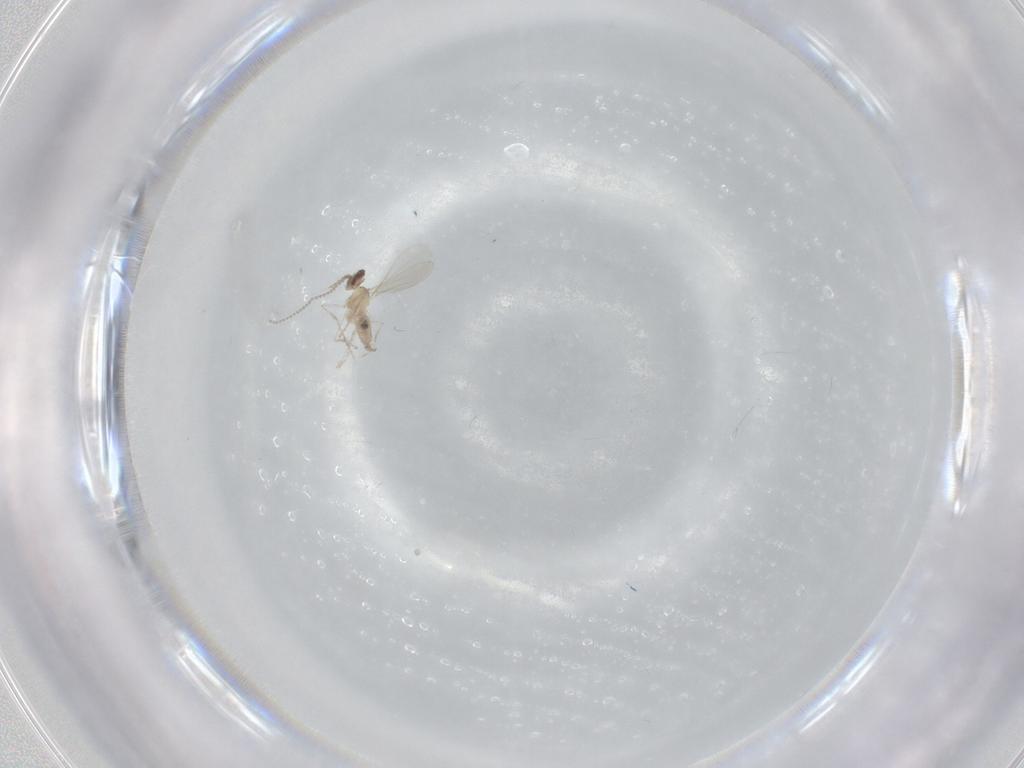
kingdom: Animalia
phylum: Arthropoda
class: Insecta
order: Diptera
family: Cecidomyiidae
